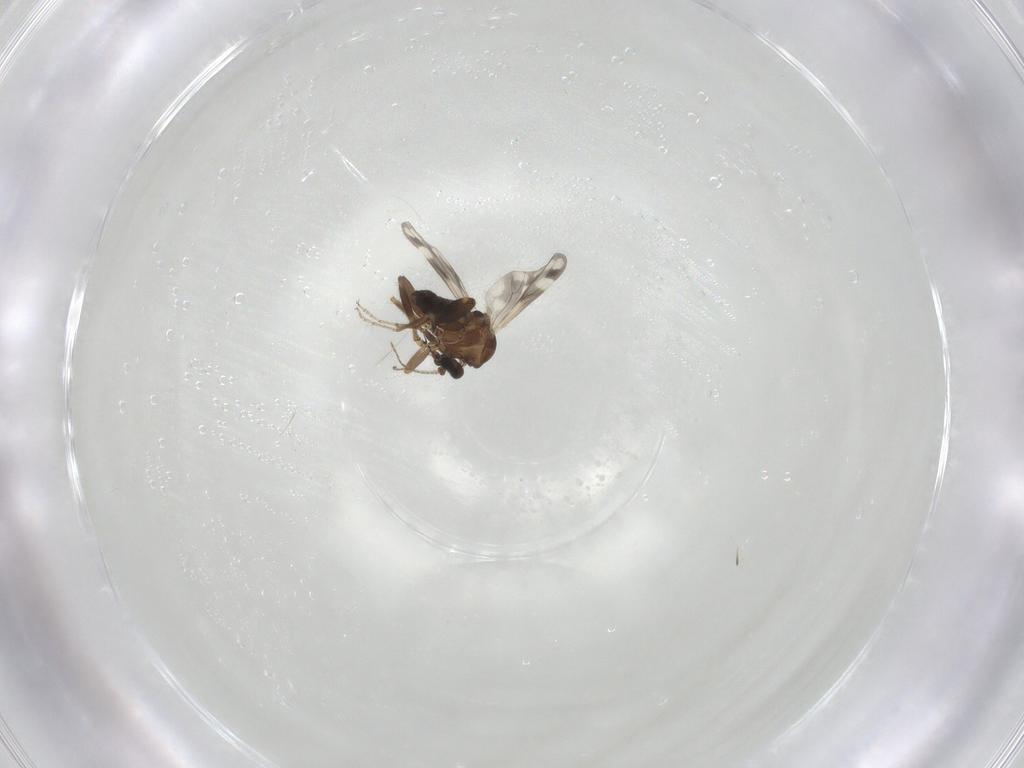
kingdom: Animalia
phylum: Arthropoda
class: Insecta
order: Diptera
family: Ceratopogonidae
